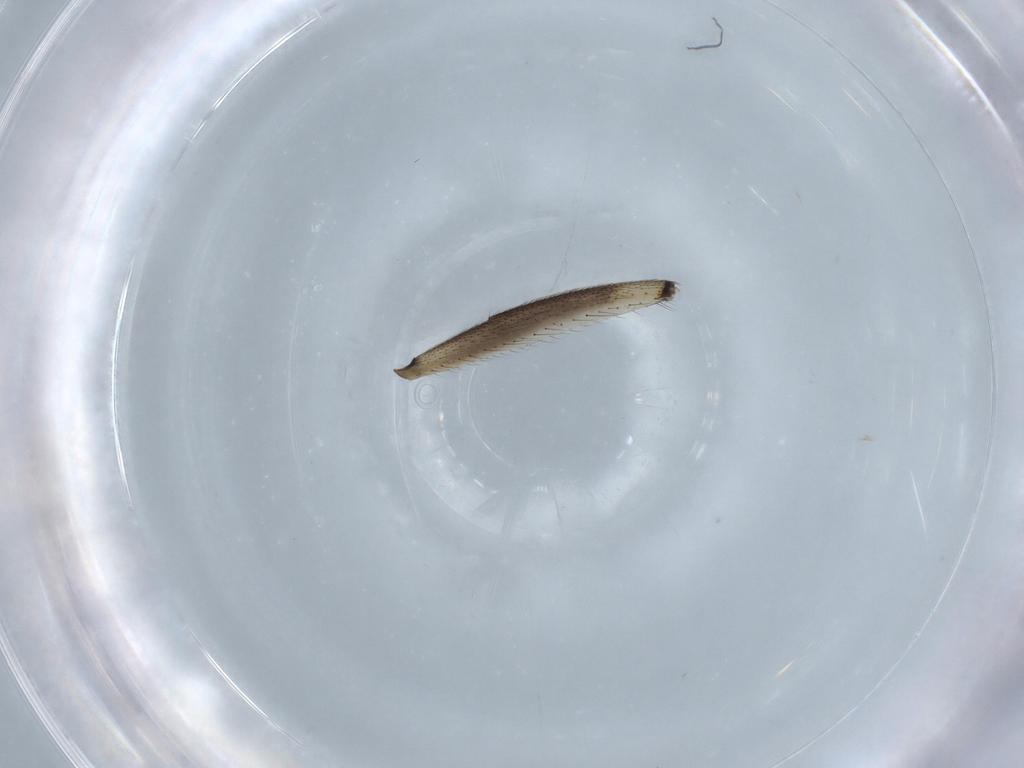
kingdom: Animalia
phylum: Arthropoda
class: Insecta
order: Diptera
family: Mycetophilidae
